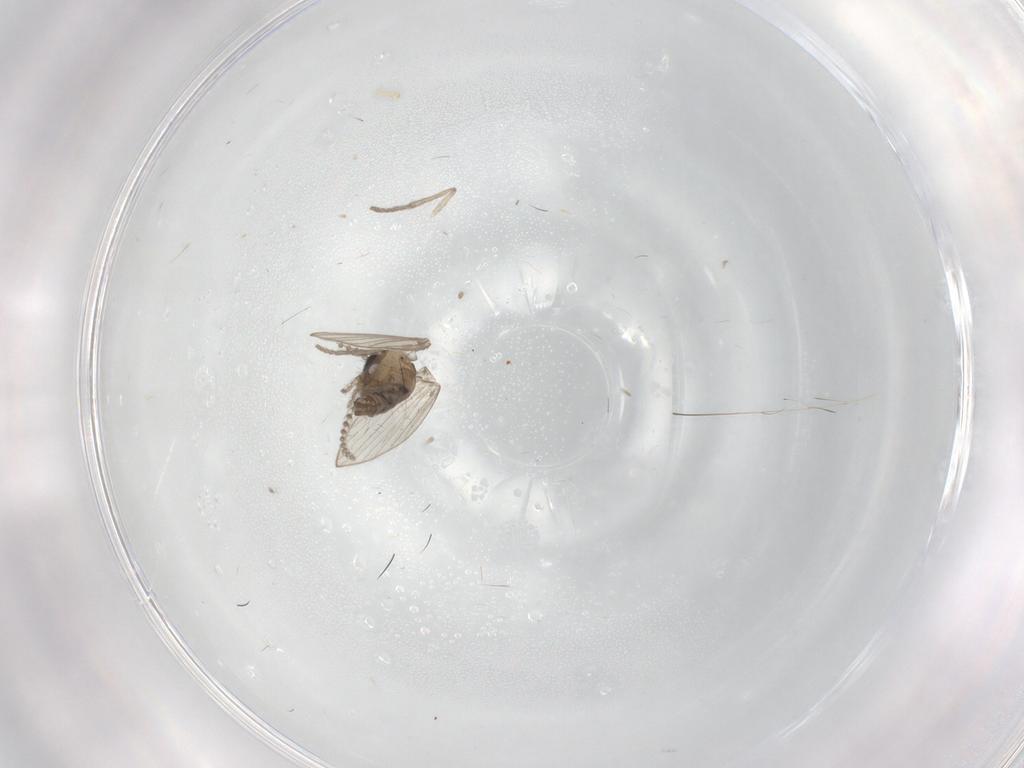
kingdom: Animalia
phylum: Arthropoda
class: Insecta
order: Diptera
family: Psychodidae
